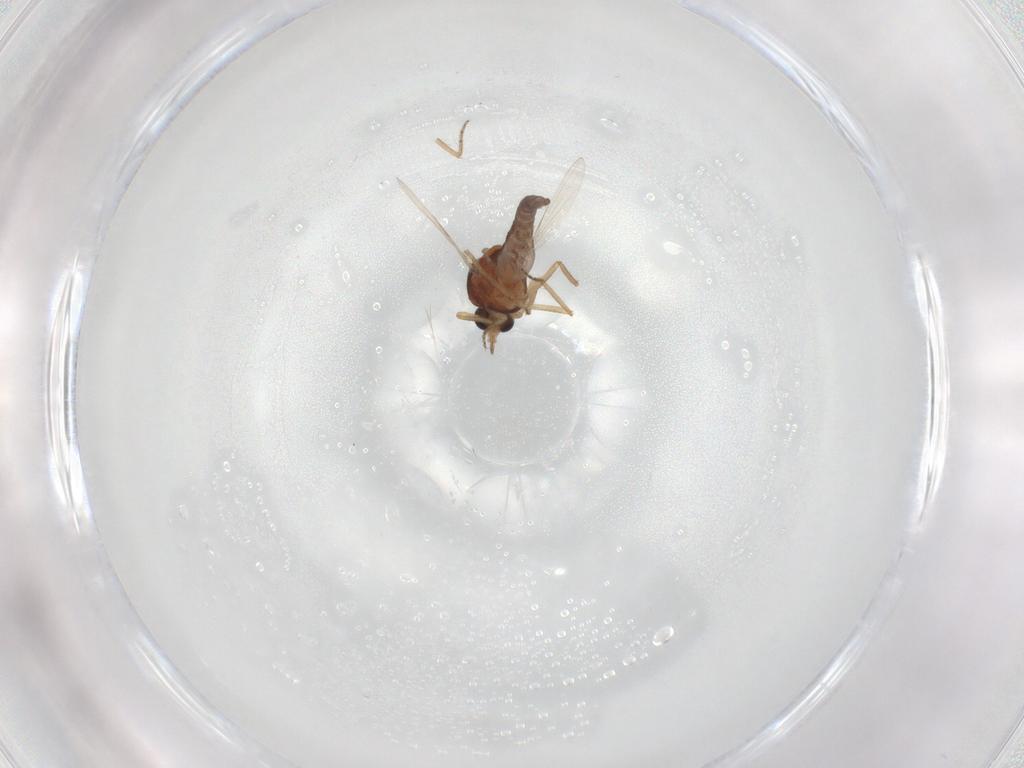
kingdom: Animalia
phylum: Arthropoda
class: Insecta
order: Diptera
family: Ceratopogonidae
